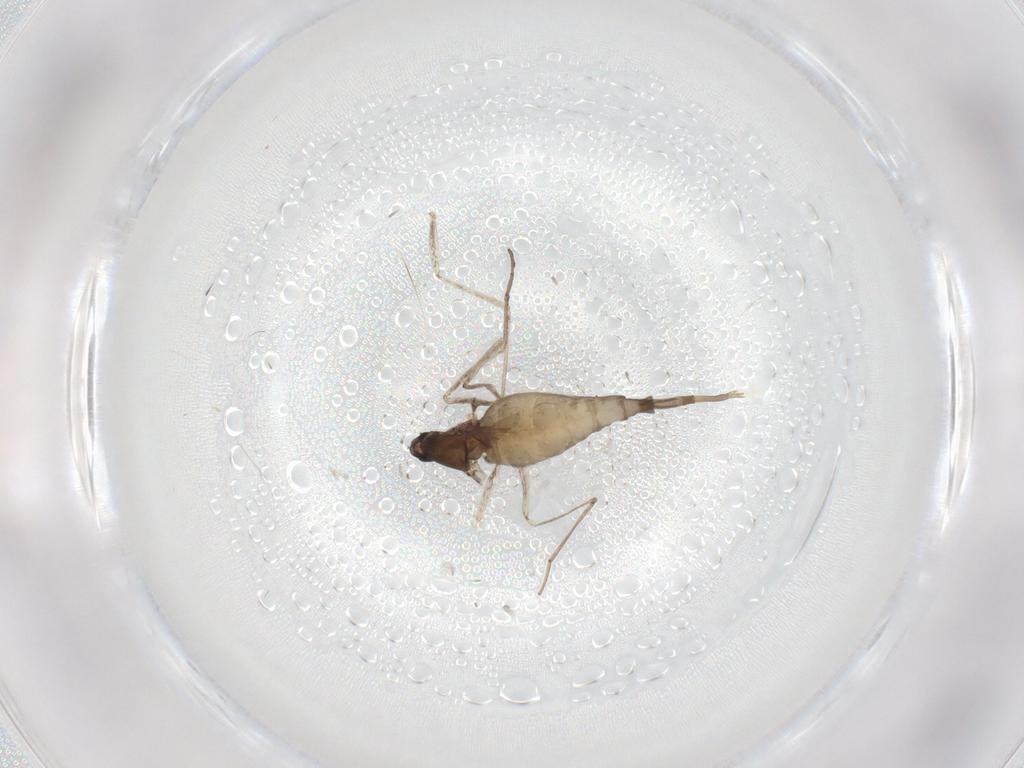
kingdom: Animalia
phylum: Arthropoda
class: Insecta
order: Diptera
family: Cecidomyiidae
